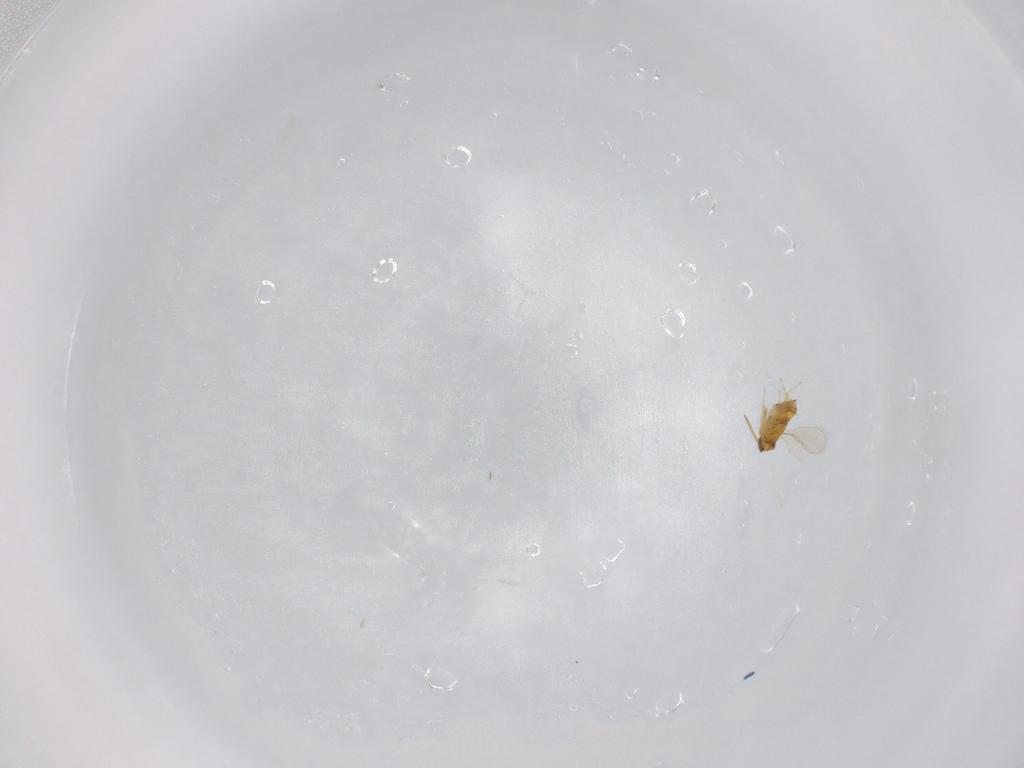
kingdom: Animalia
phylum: Arthropoda
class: Insecta
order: Hymenoptera
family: Aphelinidae
